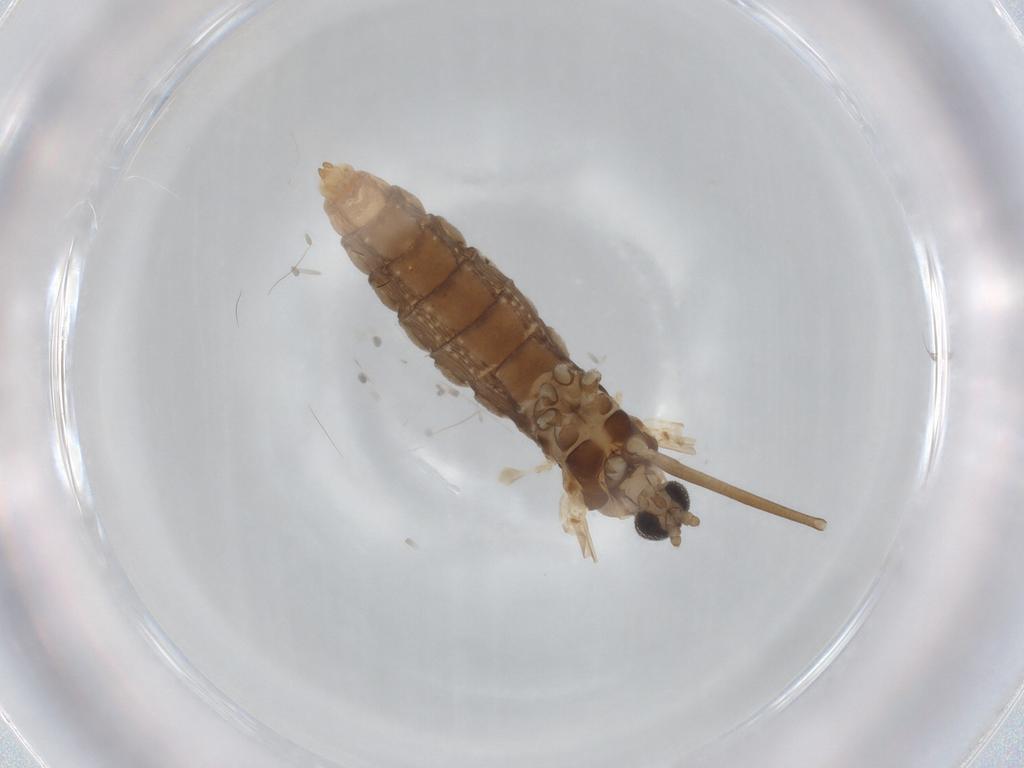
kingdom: Animalia
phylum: Arthropoda
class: Insecta
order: Diptera
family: Cecidomyiidae
